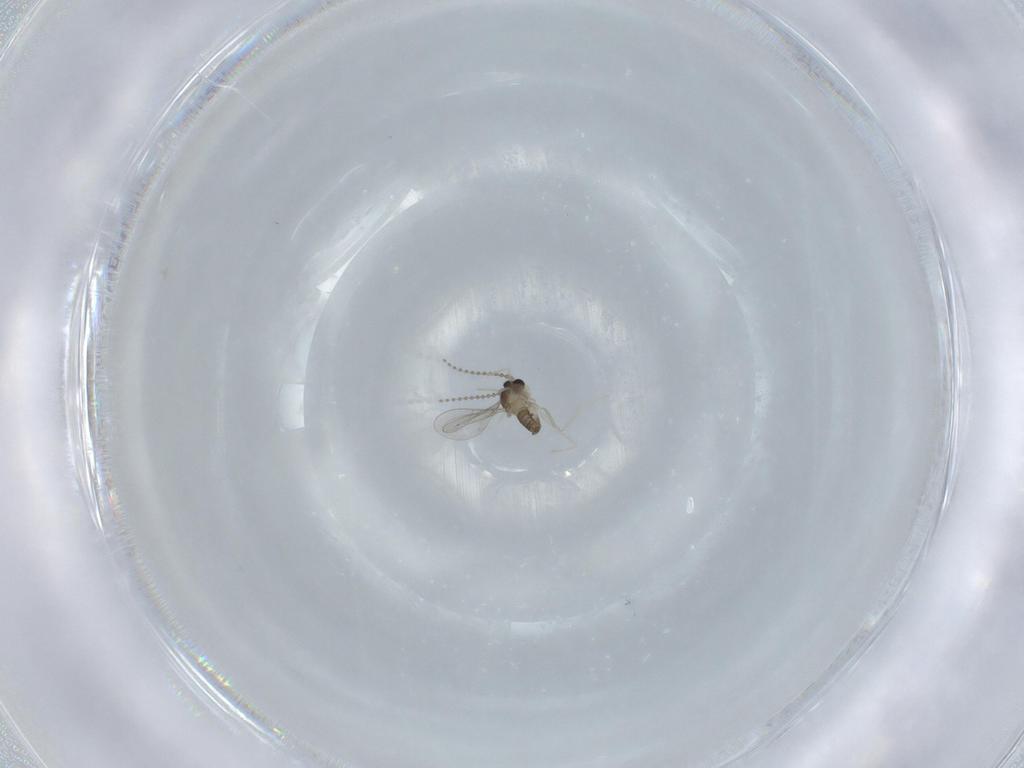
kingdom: Animalia
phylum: Arthropoda
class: Insecta
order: Diptera
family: Cecidomyiidae
